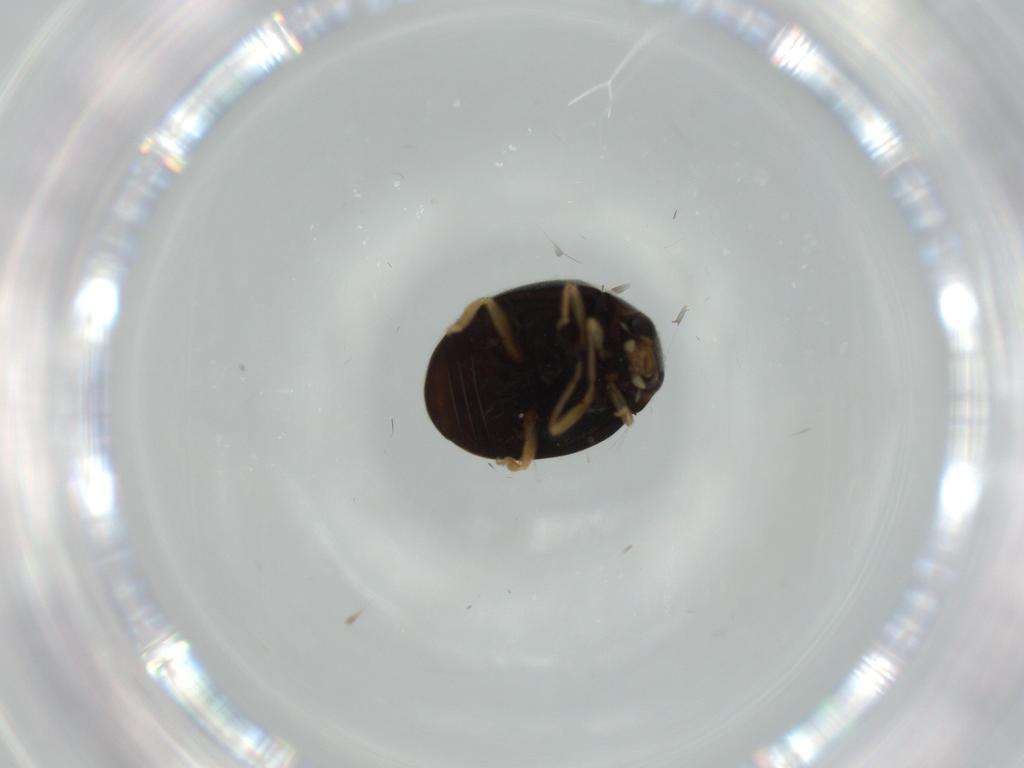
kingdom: Animalia
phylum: Arthropoda
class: Insecta
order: Coleoptera
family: Coccinellidae
